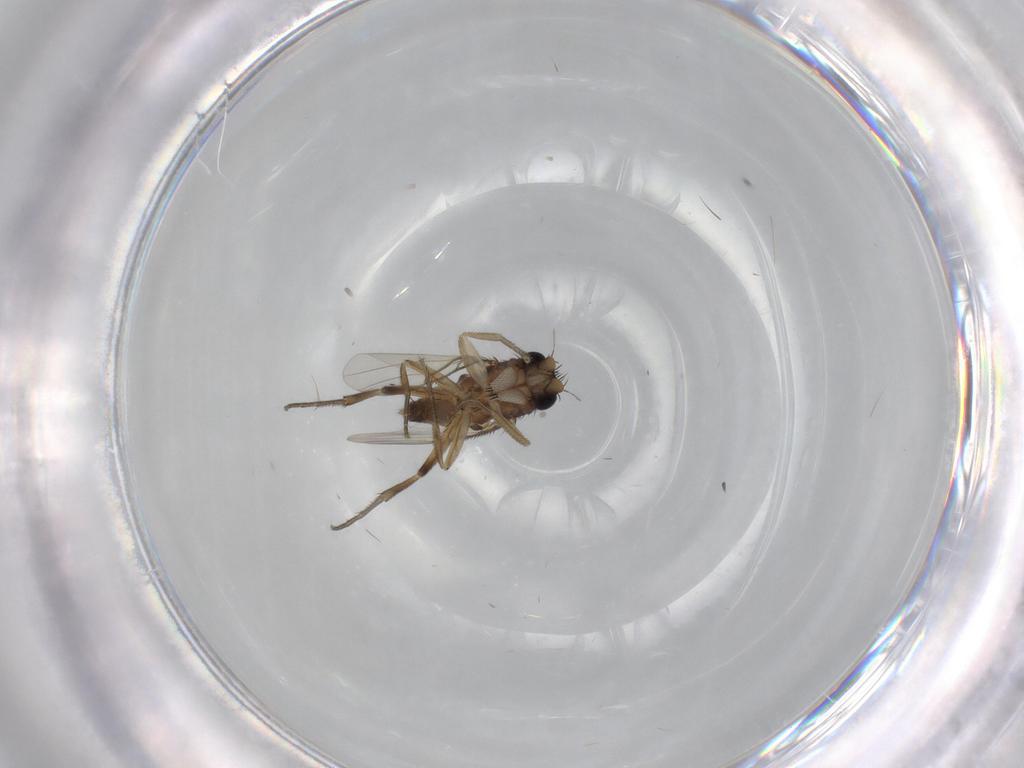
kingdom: Animalia
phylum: Arthropoda
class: Insecta
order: Diptera
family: Phoridae
